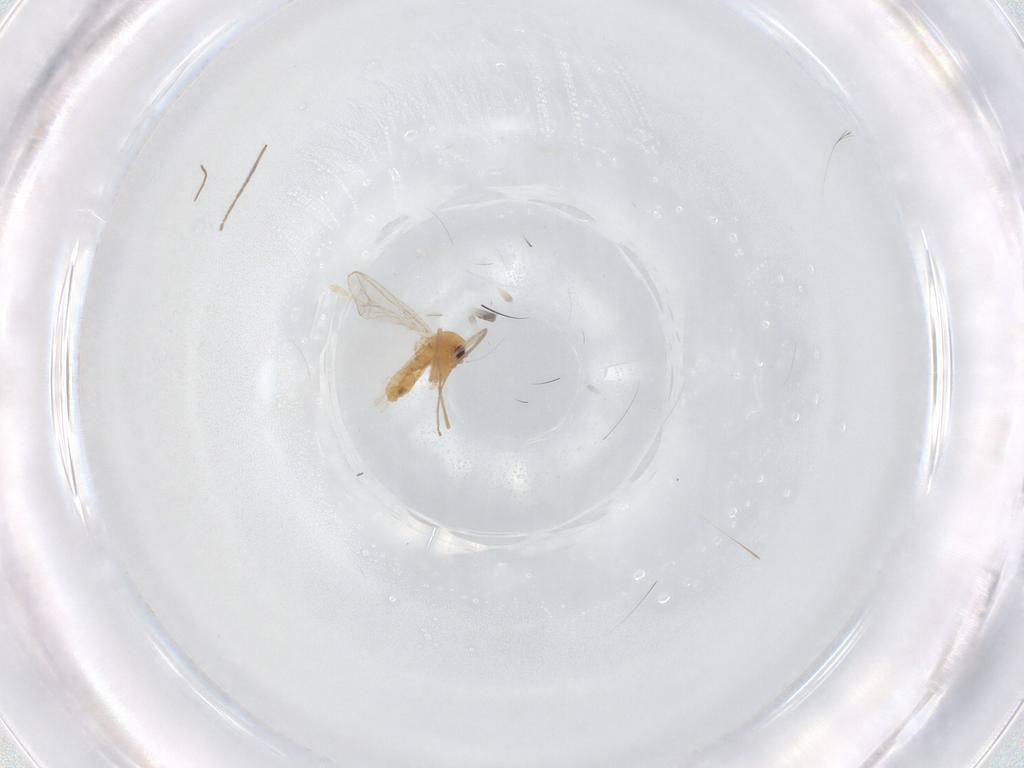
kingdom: Animalia
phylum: Arthropoda
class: Insecta
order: Diptera
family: Chironomidae
